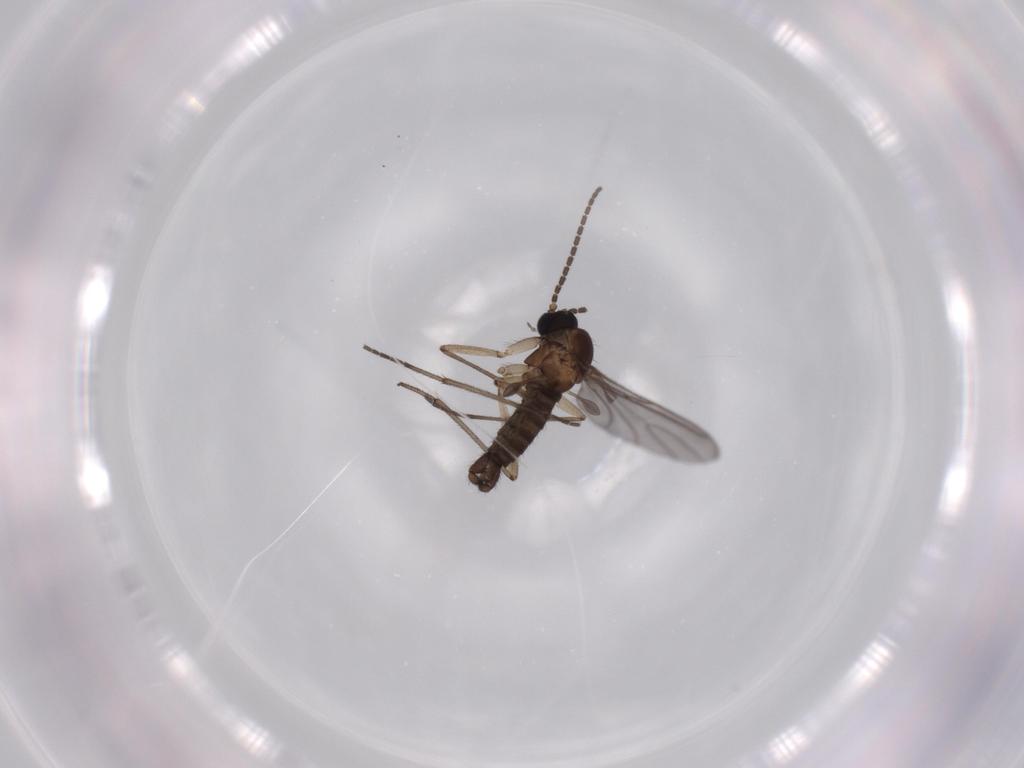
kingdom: Animalia
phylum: Arthropoda
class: Insecta
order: Diptera
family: Sciaridae
